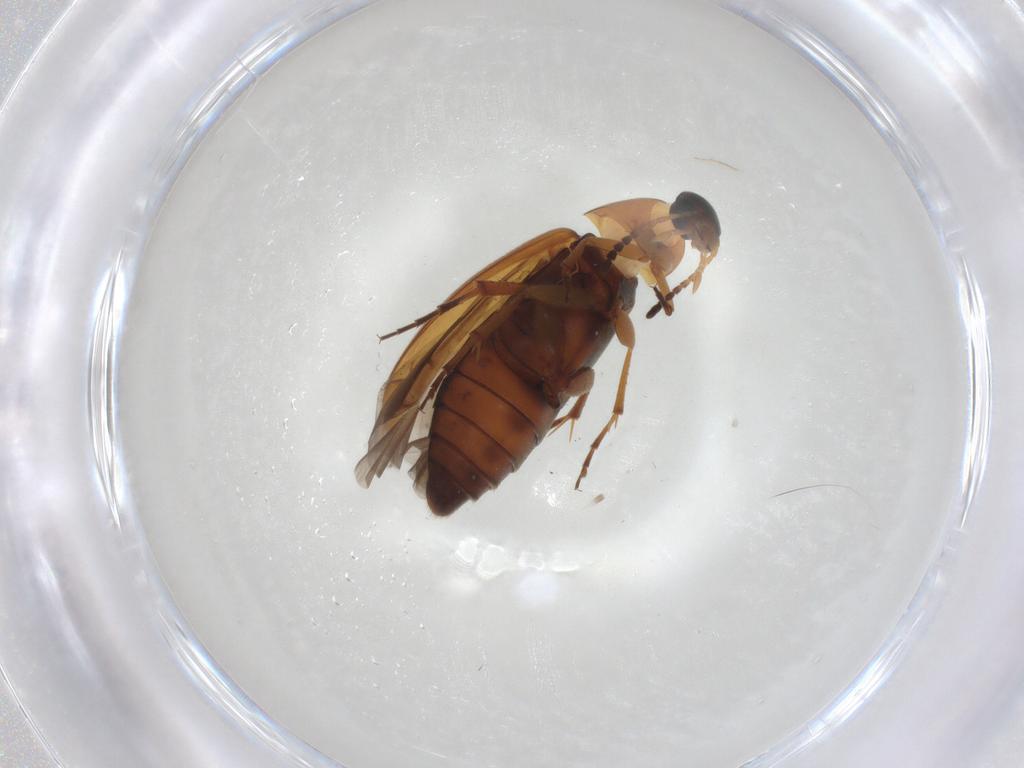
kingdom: Animalia
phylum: Arthropoda
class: Insecta
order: Coleoptera
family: Scraptiidae
